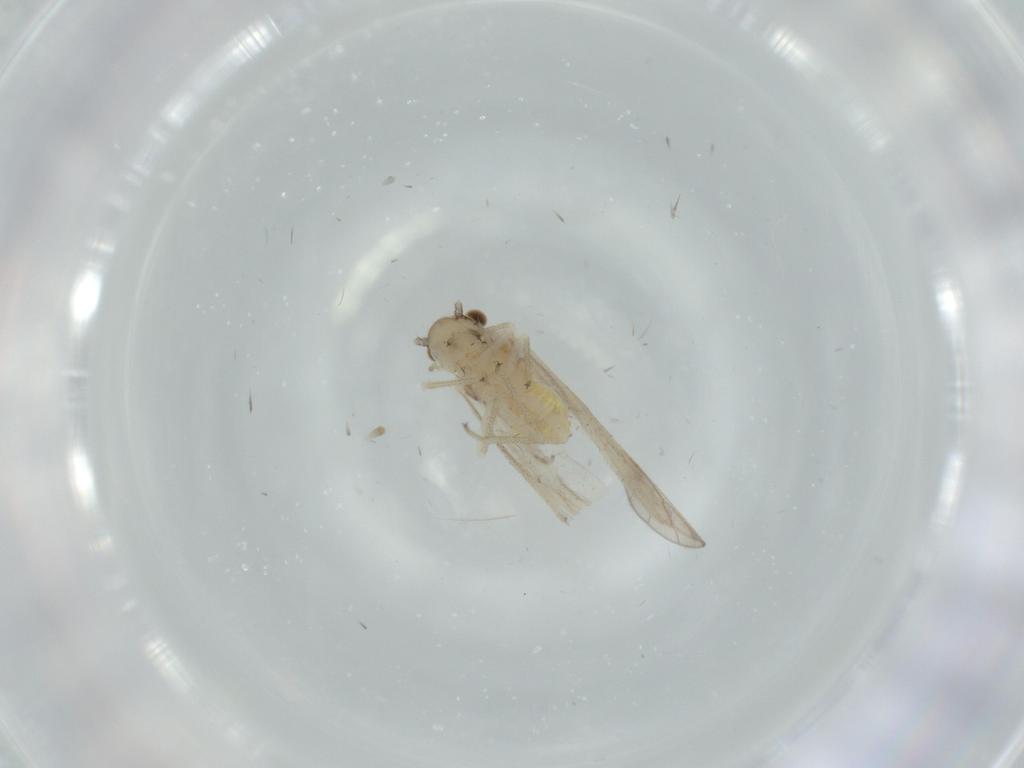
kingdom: Animalia
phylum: Arthropoda
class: Insecta
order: Psocodea
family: Caeciliusidae
